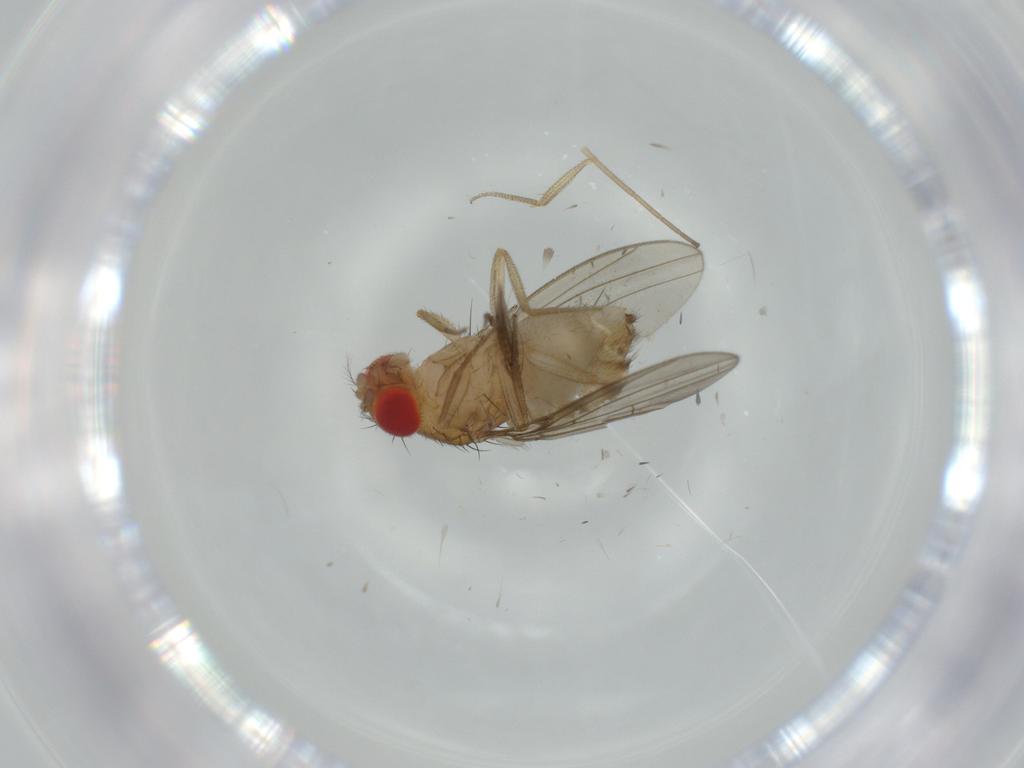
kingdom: Animalia
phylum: Arthropoda
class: Insecta
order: Diptera
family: Drosophilidae
